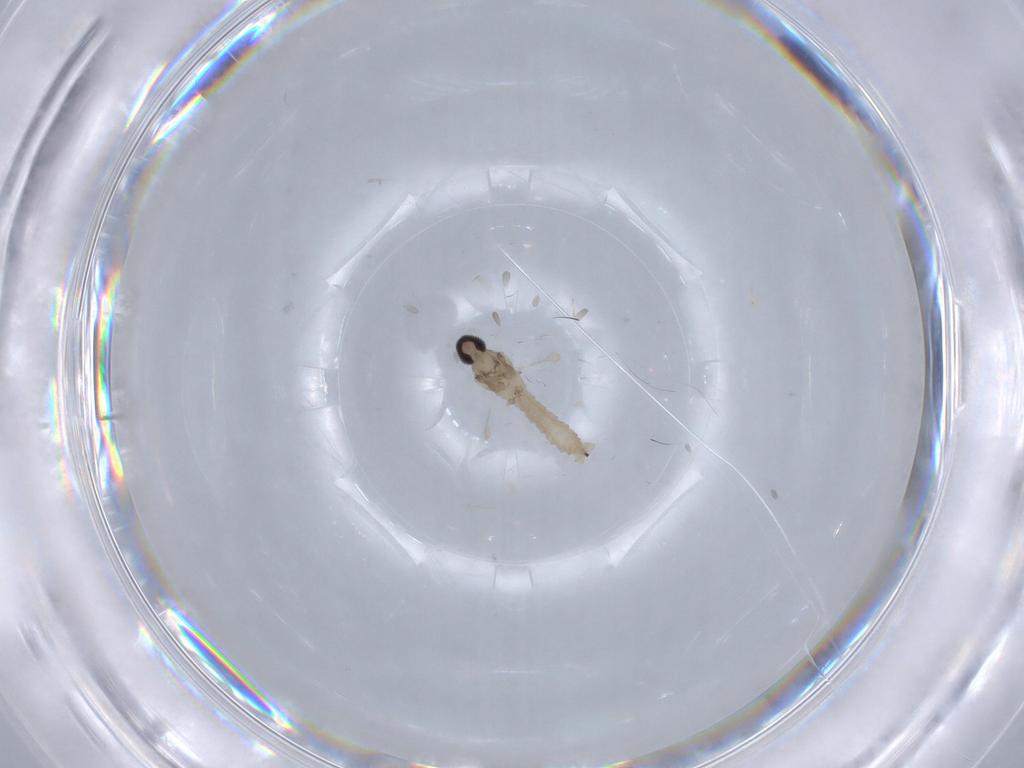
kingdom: Animalia
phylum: Arthropoda
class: Insecta
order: Diptera
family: Cecidomyiidae
